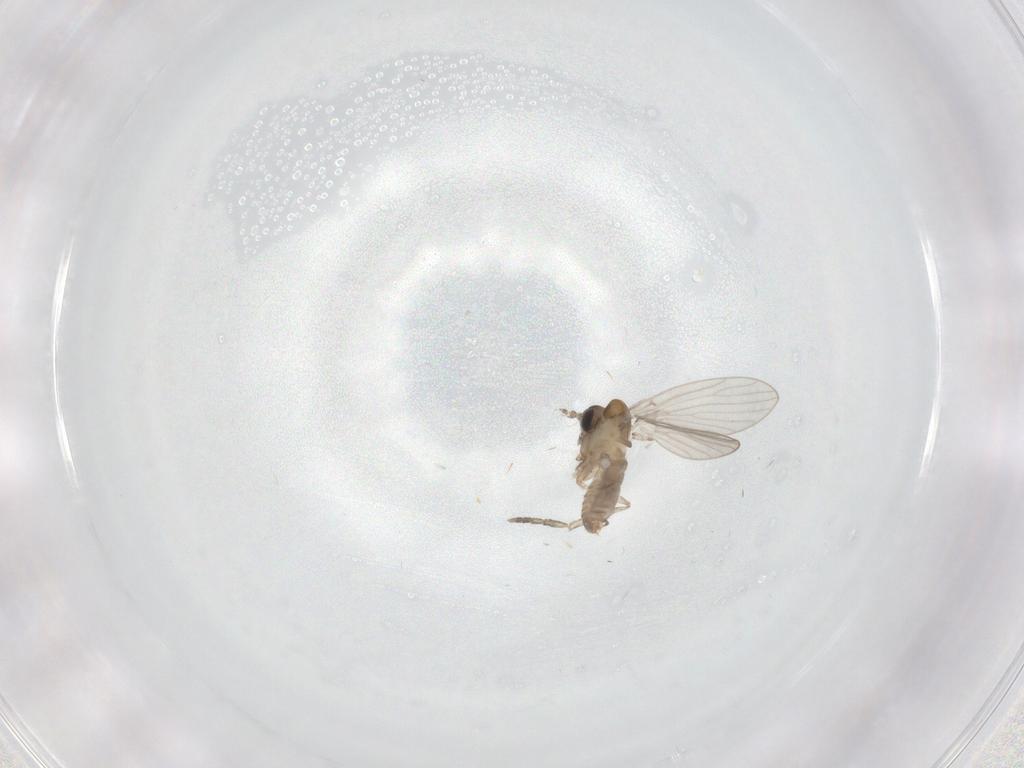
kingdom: Animalia
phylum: Arthropoda
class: Insecta
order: Diptera
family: Psychodidae
